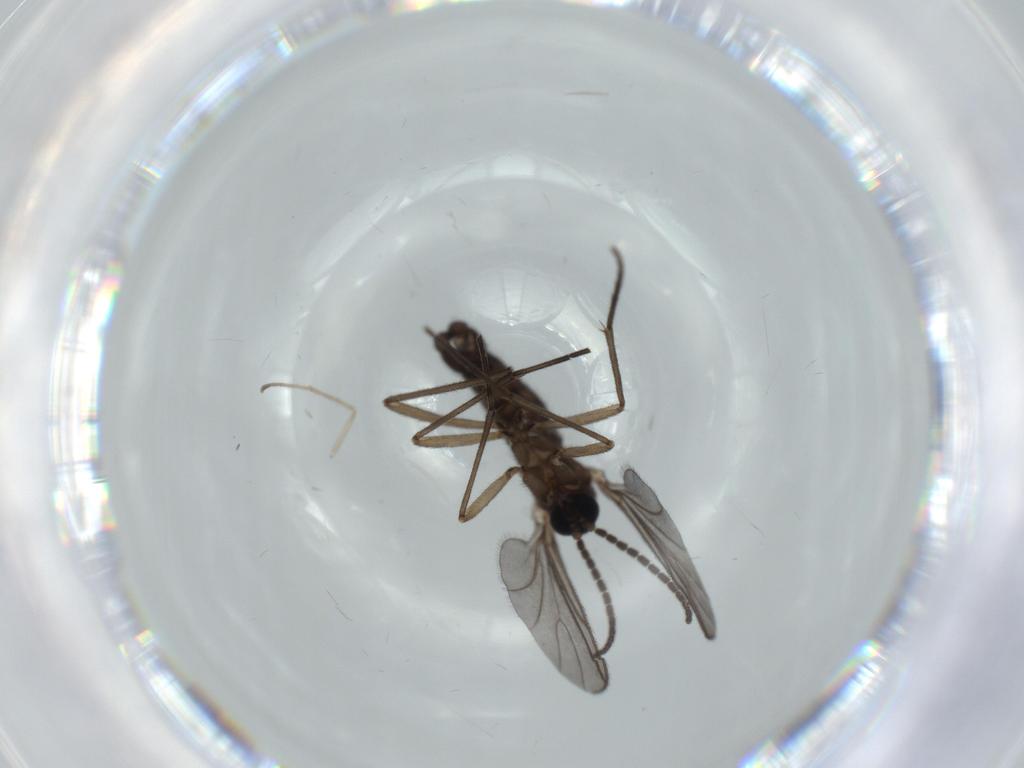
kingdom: Animalia
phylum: Arthropoda
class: Insecta
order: Diptera
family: Sciaridae
